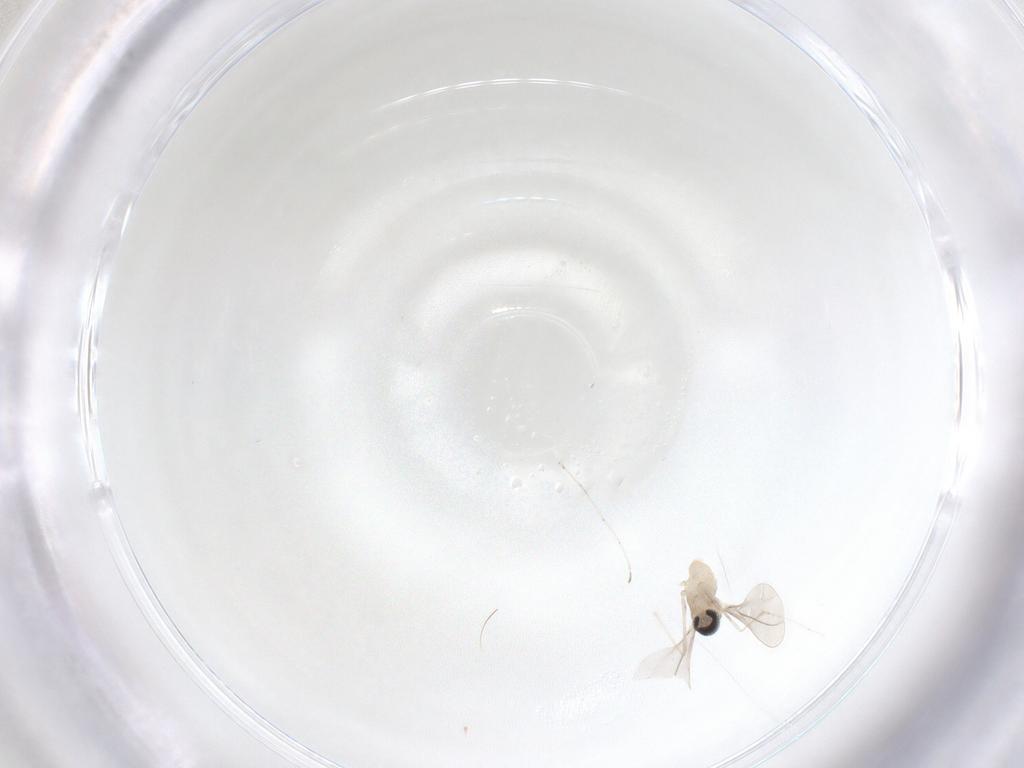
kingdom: Animalia
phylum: Arthropoda
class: Insecta
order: Diptera
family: Cecidomyiidae
